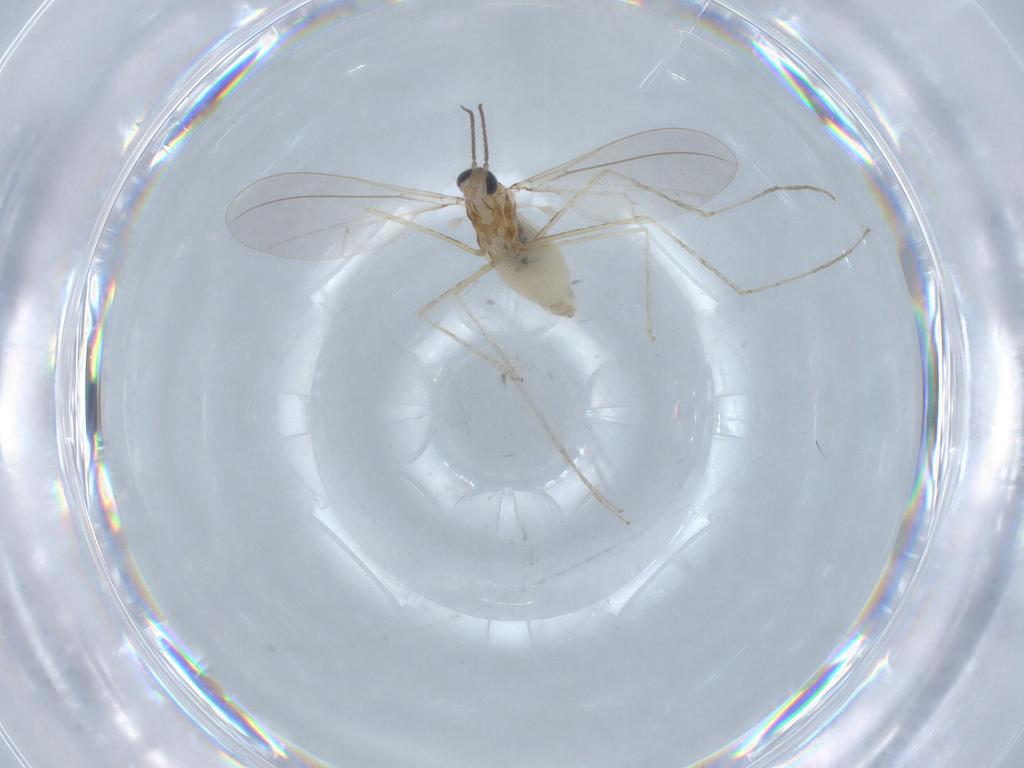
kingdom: Animalia
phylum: Arthropoda
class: Insecta
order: Diptera
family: Cecidomyiidae
